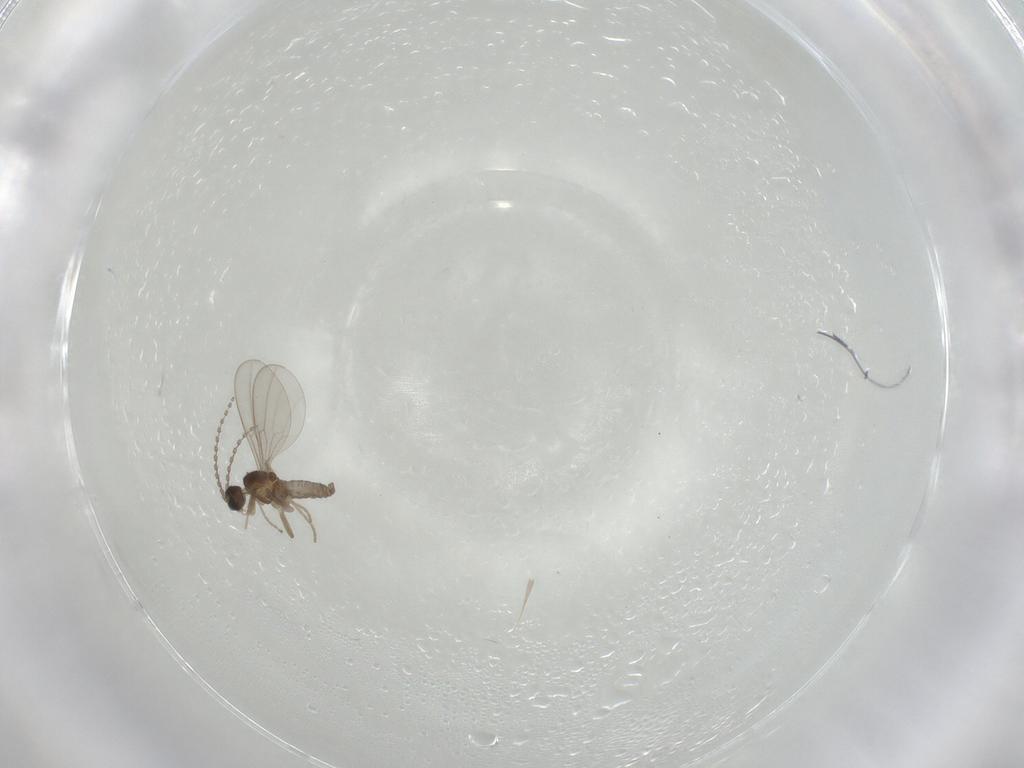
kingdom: Animalia
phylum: Arthropoda
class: Insecta
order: Diptera
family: Cecidomyiidae
